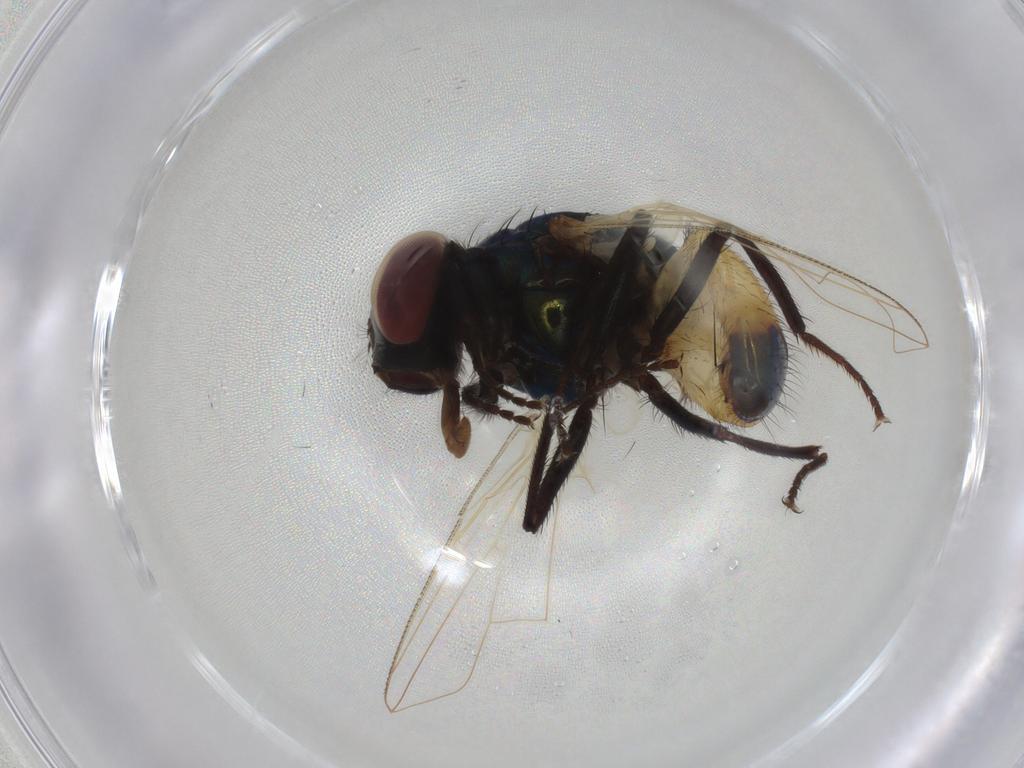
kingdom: Animalia
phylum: Arthropoda
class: Insecta
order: Diptera
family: Muscidae
